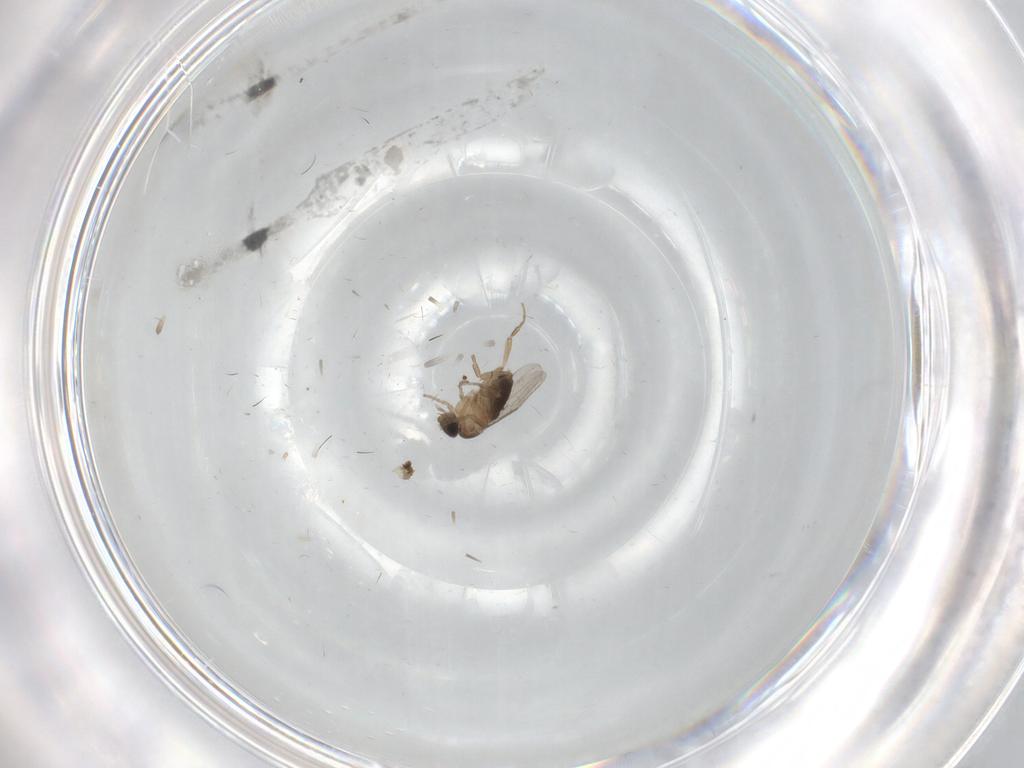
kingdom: Animalia
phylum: Arthropoda
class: Insecta
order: Diptera
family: Sciaridae
